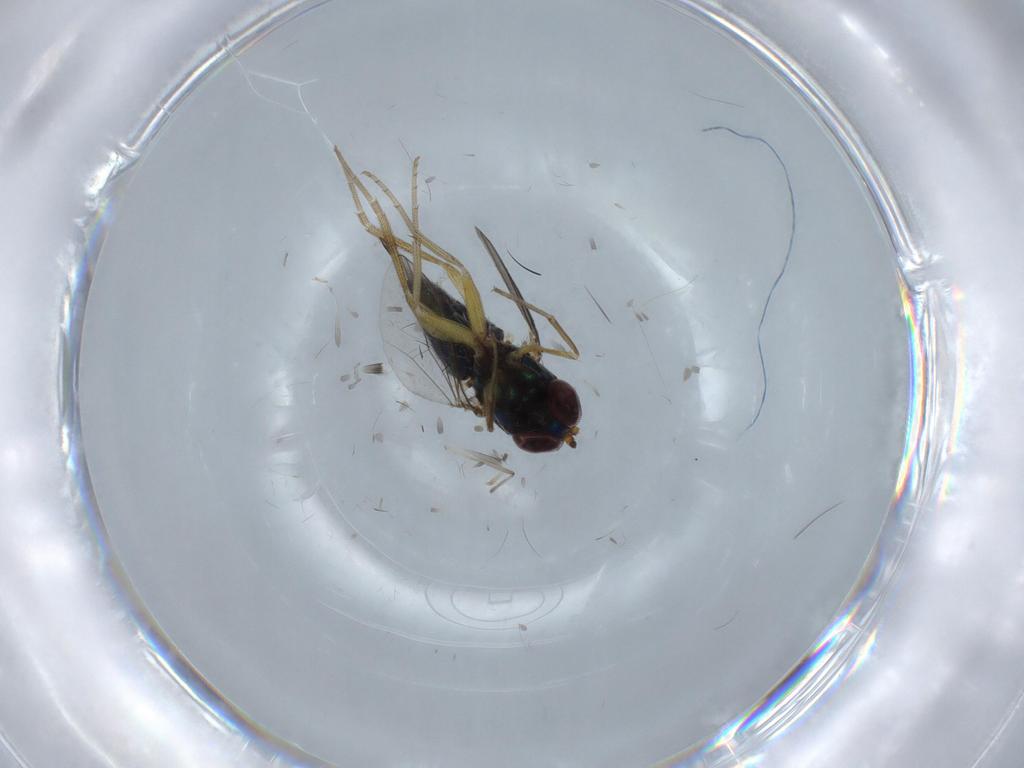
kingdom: Animalia
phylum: Arthropoda
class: Insecta
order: Diptera
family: Dolichopodidae
